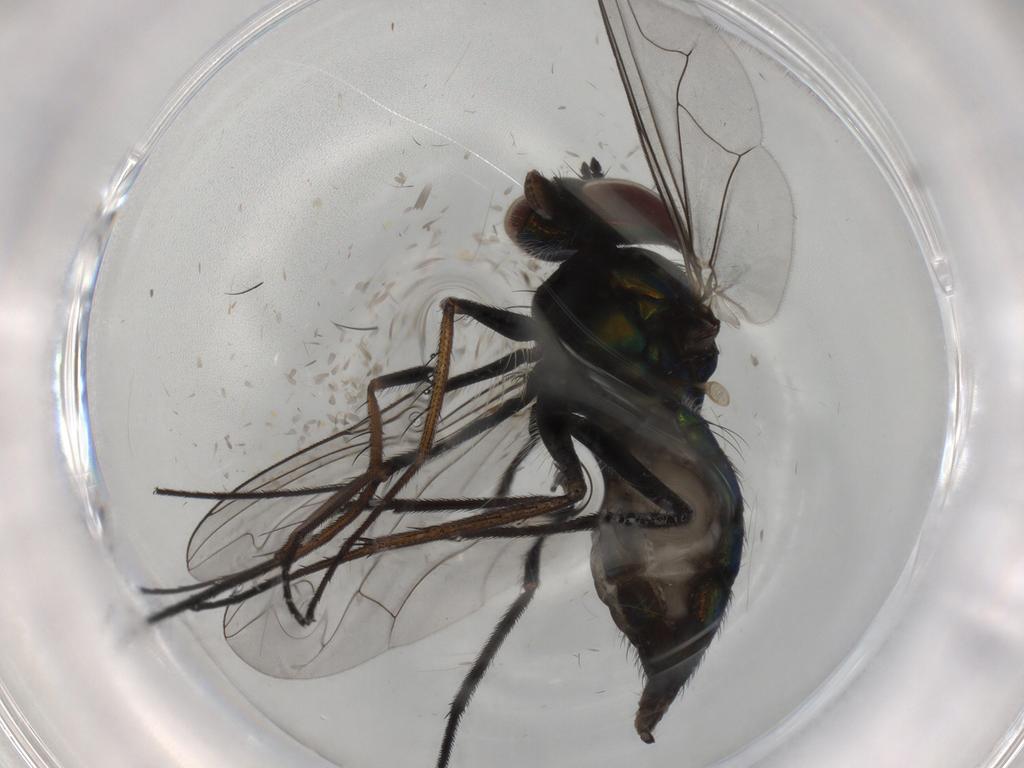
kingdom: Animalia
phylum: Arthropoda
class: Insecta
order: Diptera
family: Dolichopodidae
